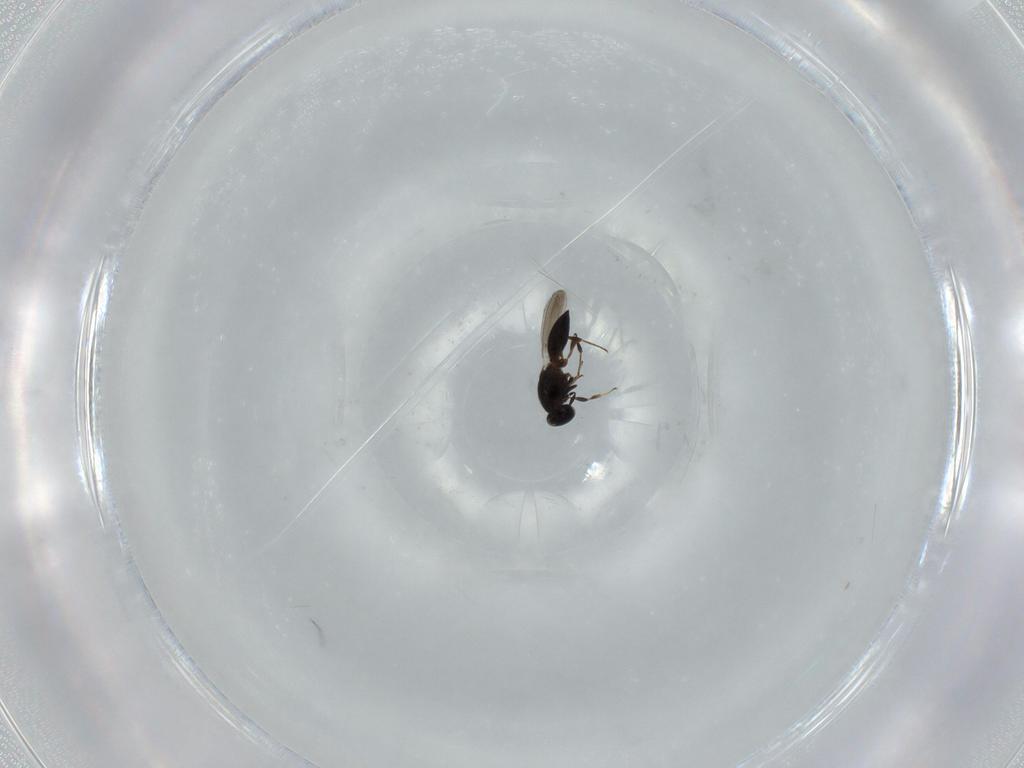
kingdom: Animalia
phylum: Arthropoda
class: Insecta
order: Hymenoptera
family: Platygastridae
